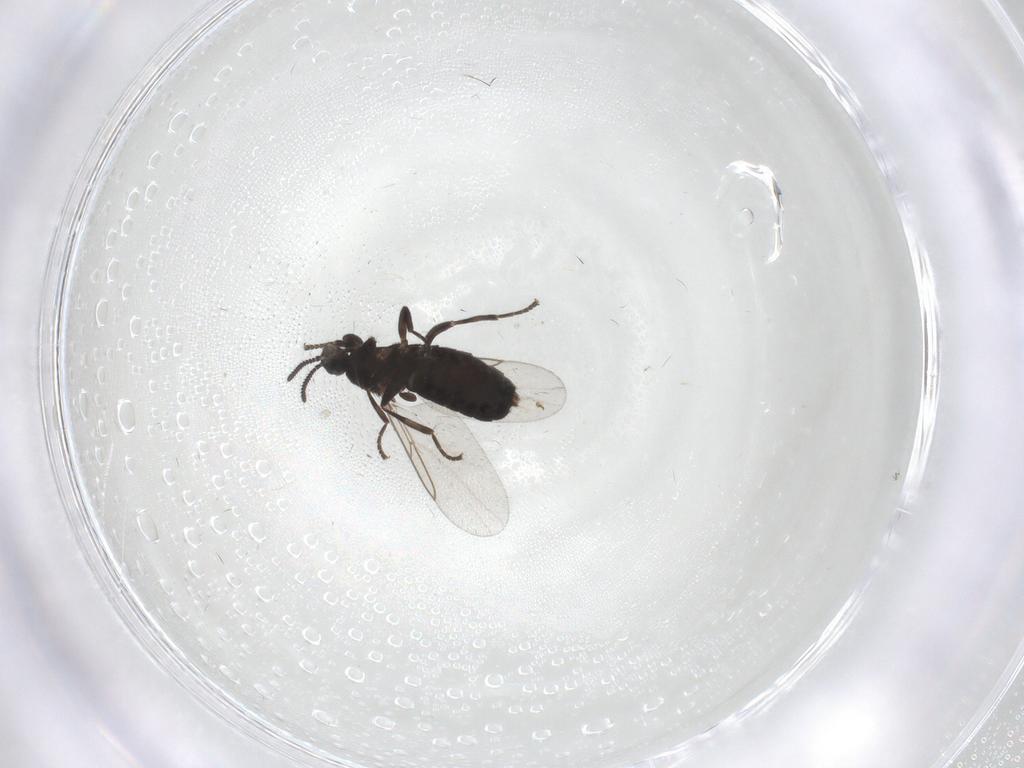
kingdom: Animalia
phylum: Arthropoda
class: Insecta
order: Diptera
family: Scatopsidae
